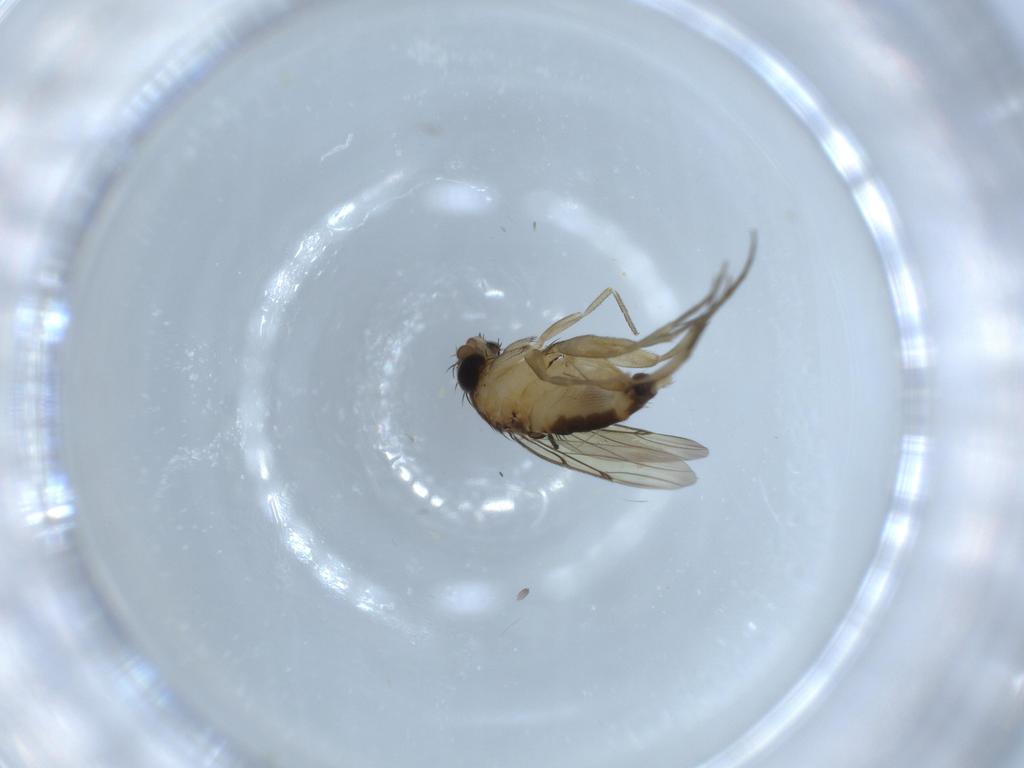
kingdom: Animalia
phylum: Arthropoda
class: Insecta
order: Diptera
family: Sciaridae
